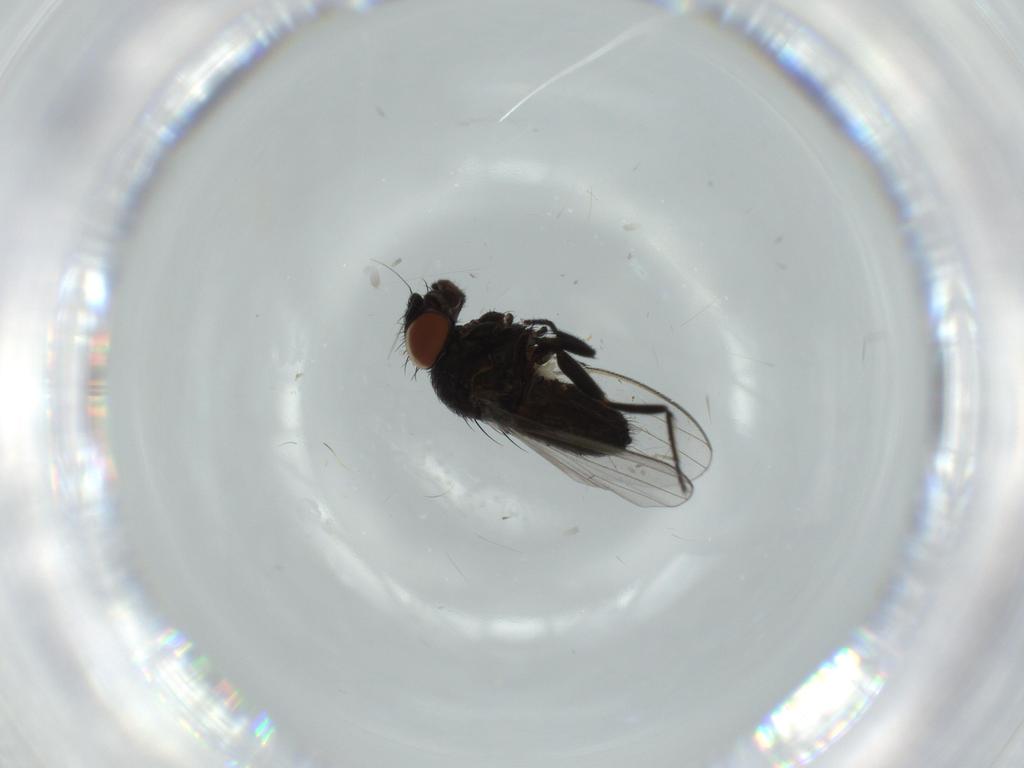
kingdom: Animalia
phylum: Arthropoda
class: Insecta
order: Diptera
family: Milichiidae
